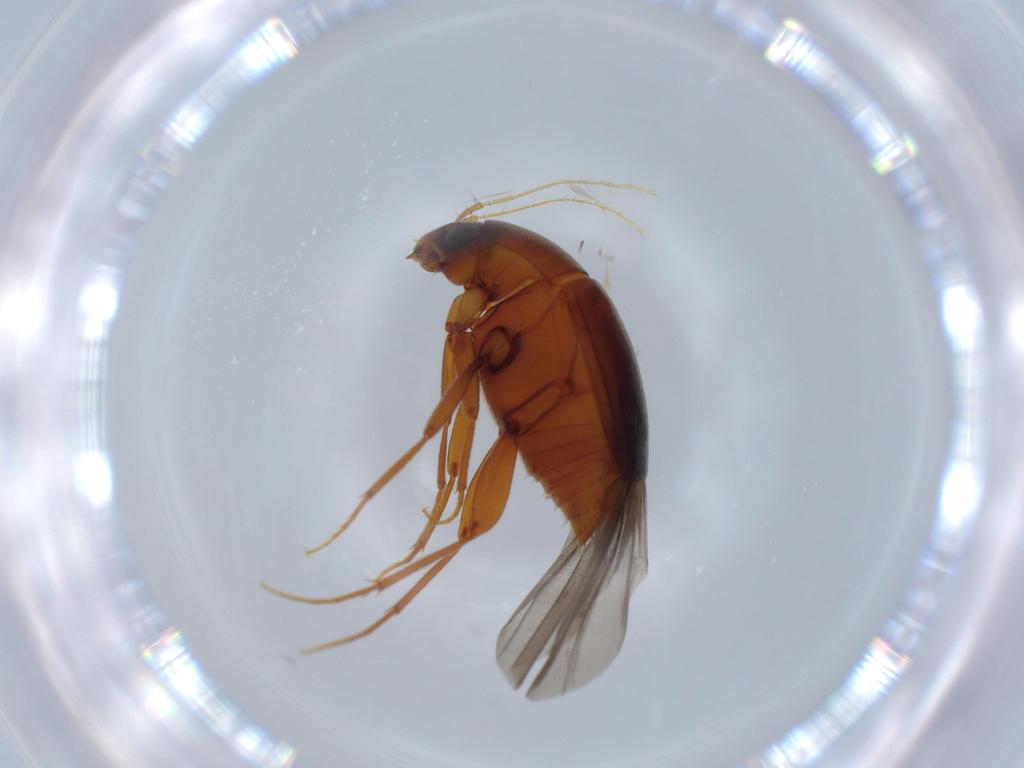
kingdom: Animalia
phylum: Arthropoda
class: Insecta
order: Coleoptera
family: Staphylinidae
